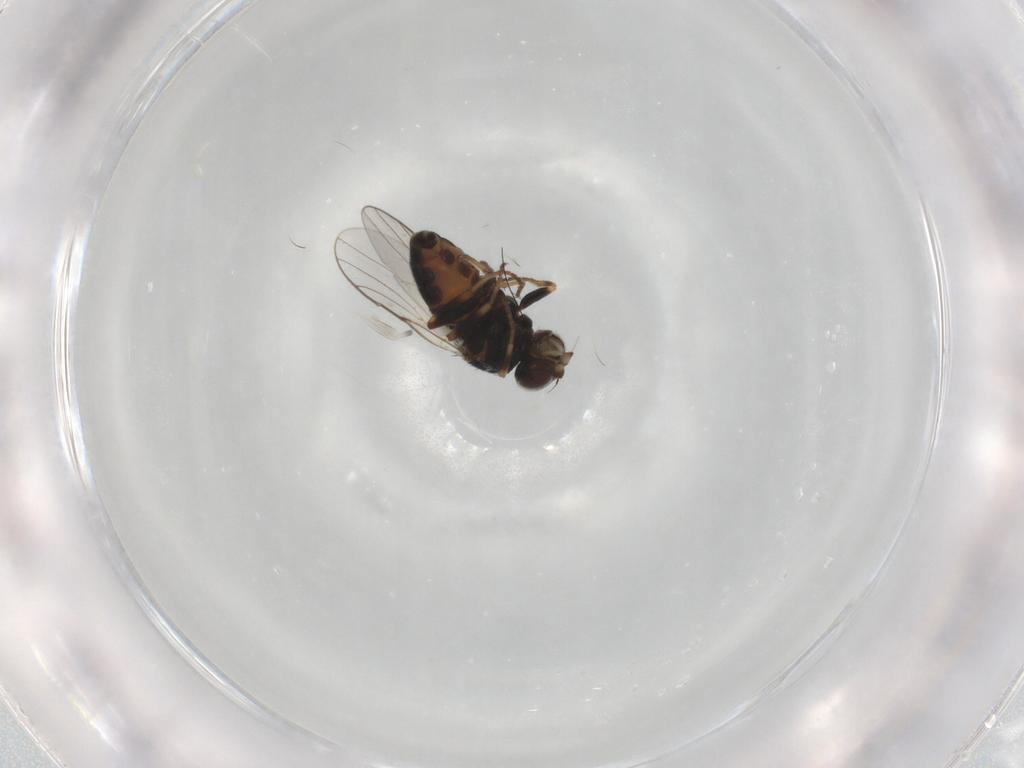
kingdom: Animalia
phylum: Arthropoda
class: Insecta
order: Diptera
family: Chloropidae
